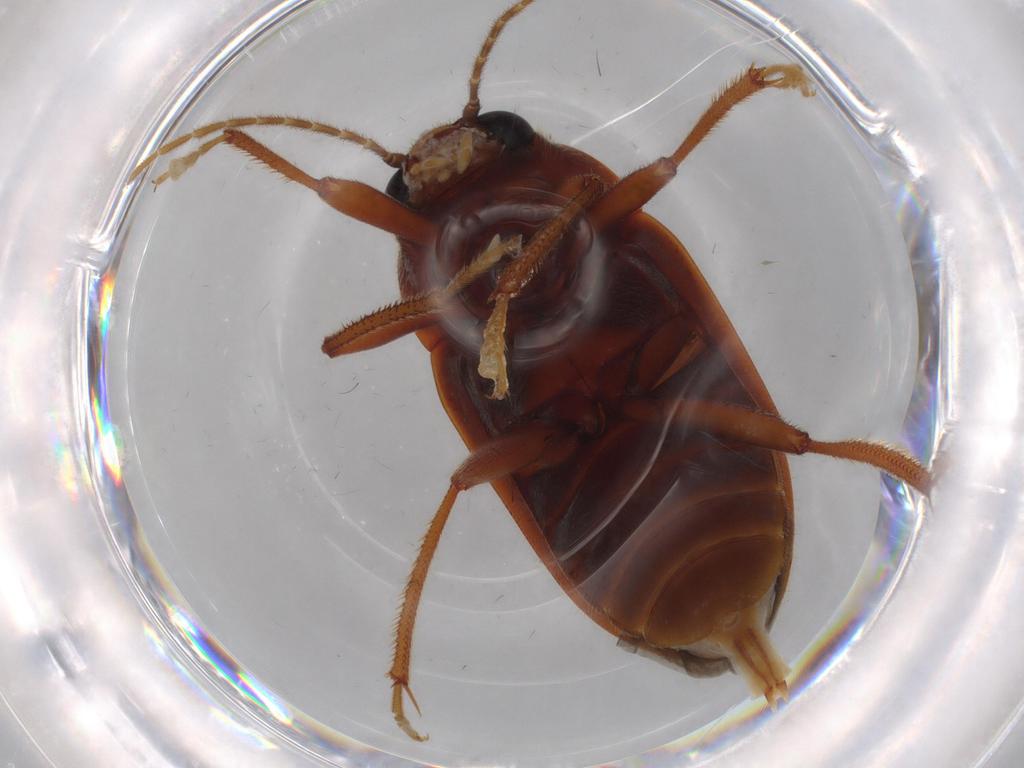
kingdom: Animalia
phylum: Arthropoda
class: Insecta
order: Coleoptera
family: Ptilodactylidae
